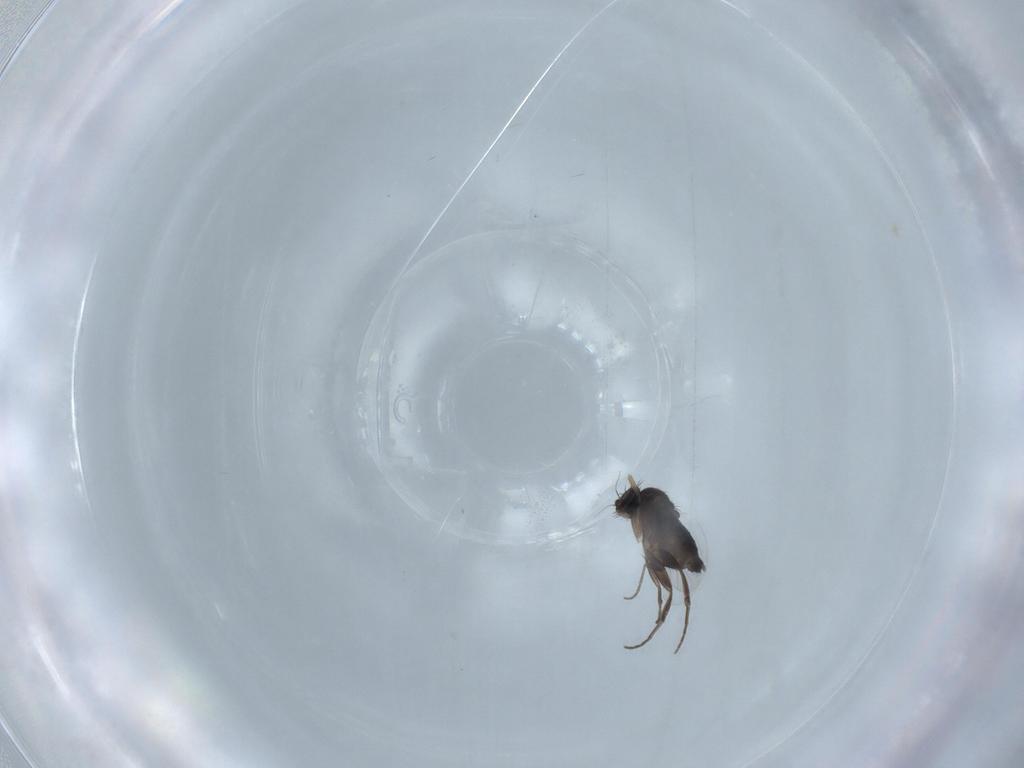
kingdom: Animalia
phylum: Arthropoda
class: Insecta
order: Diptera
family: Phoridae
